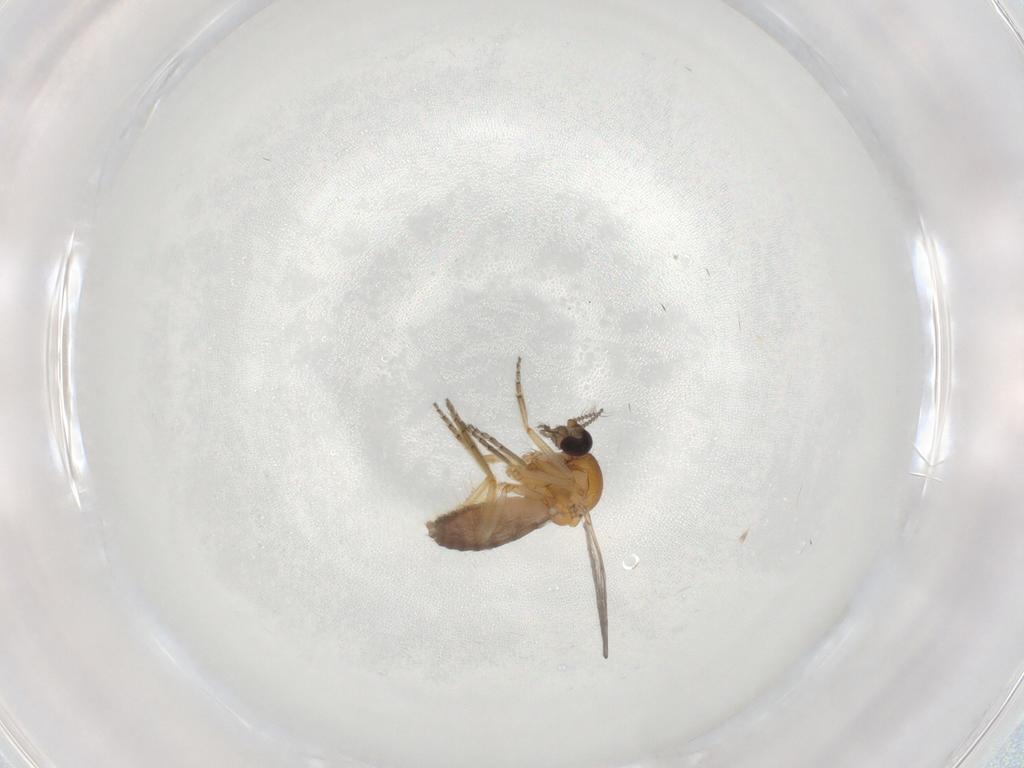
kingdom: Animalia
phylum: Arthropoda
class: Insecta
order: Diptera
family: Ceratopogonidae
